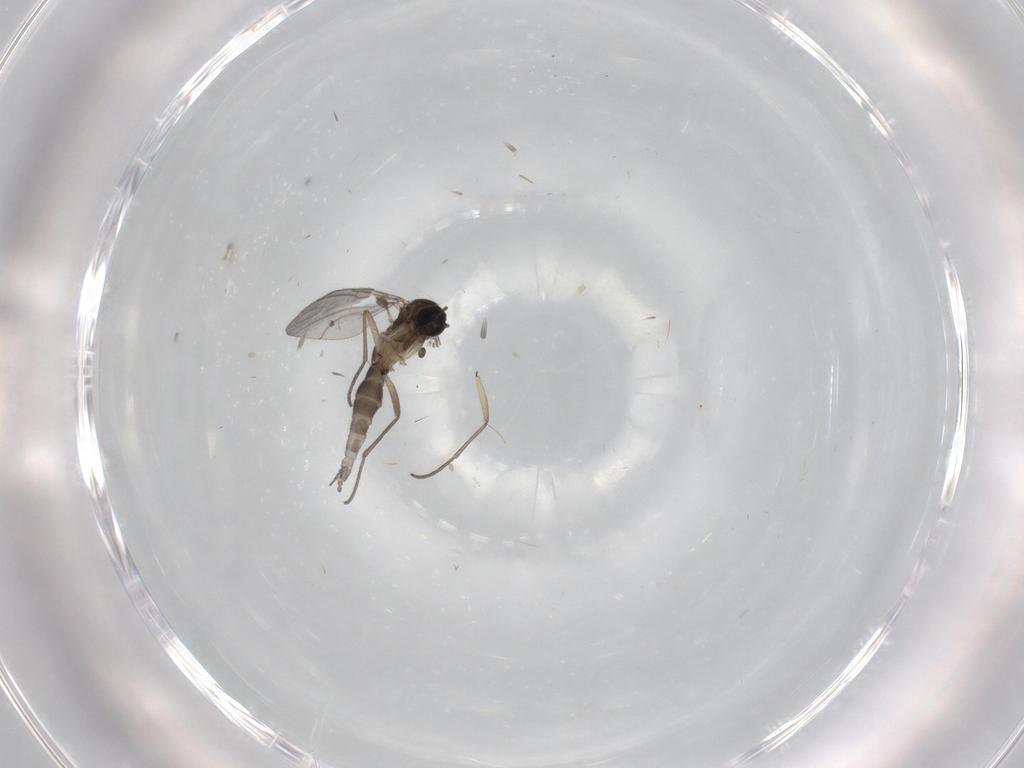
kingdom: Animalia
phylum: Arthropoda
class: Insecta
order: Diptera
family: Sciaridae
